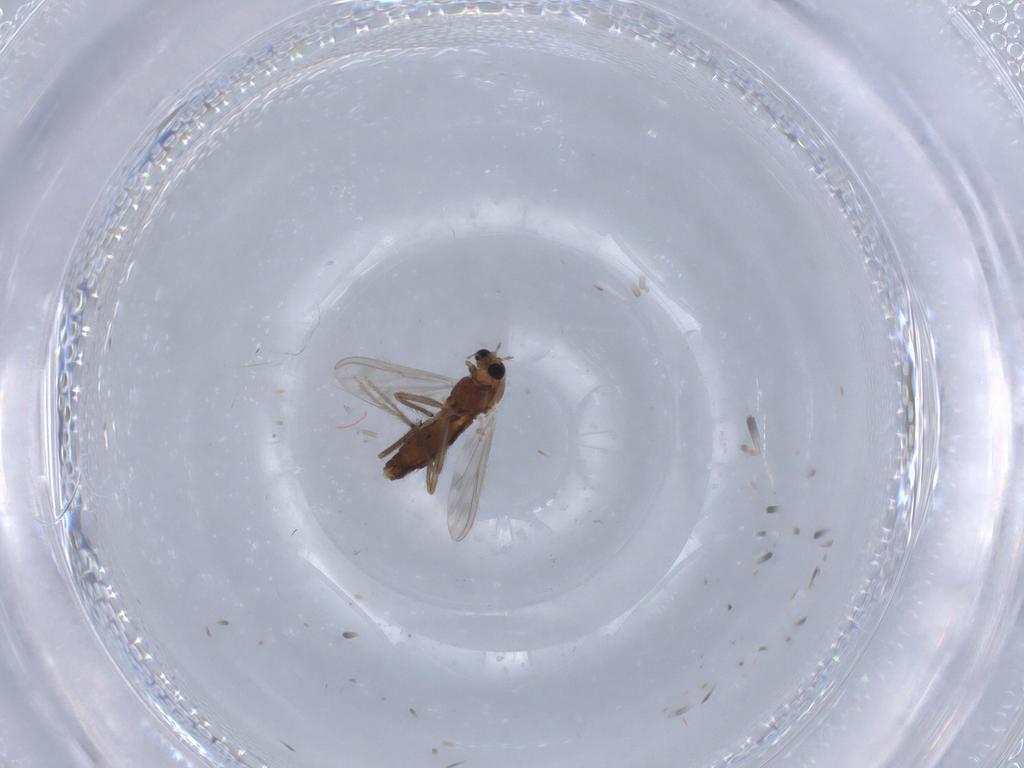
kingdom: Animalia
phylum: Arthropoda
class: Insecta
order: Diptera
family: Chironomidae
